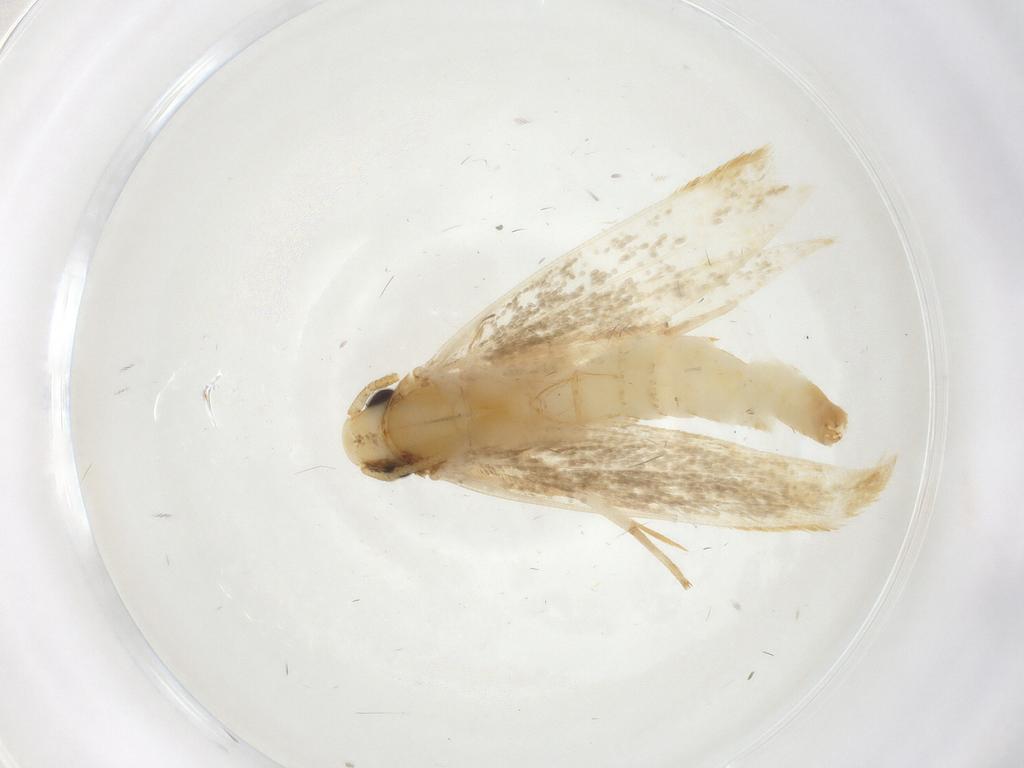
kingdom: Animalia
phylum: Arthropoda
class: Insecta
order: Lepidoptera
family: Tineidae
